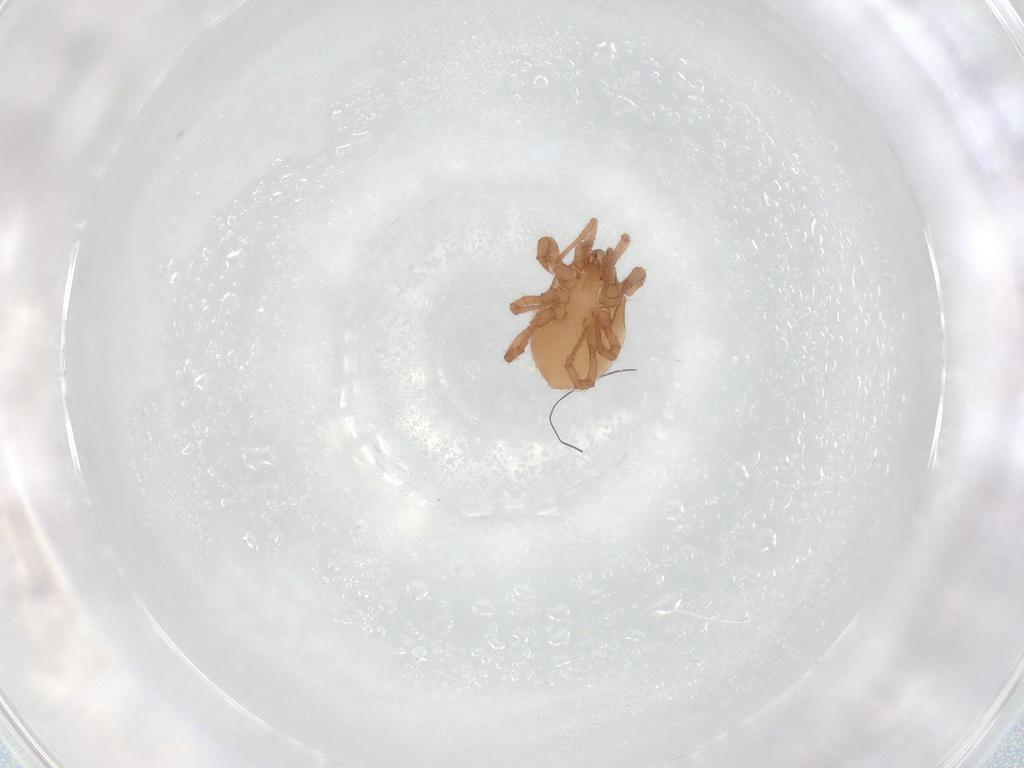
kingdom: Animalia
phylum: Arthropoda
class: Arachnida
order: Mesostigmata
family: Parasitidae
